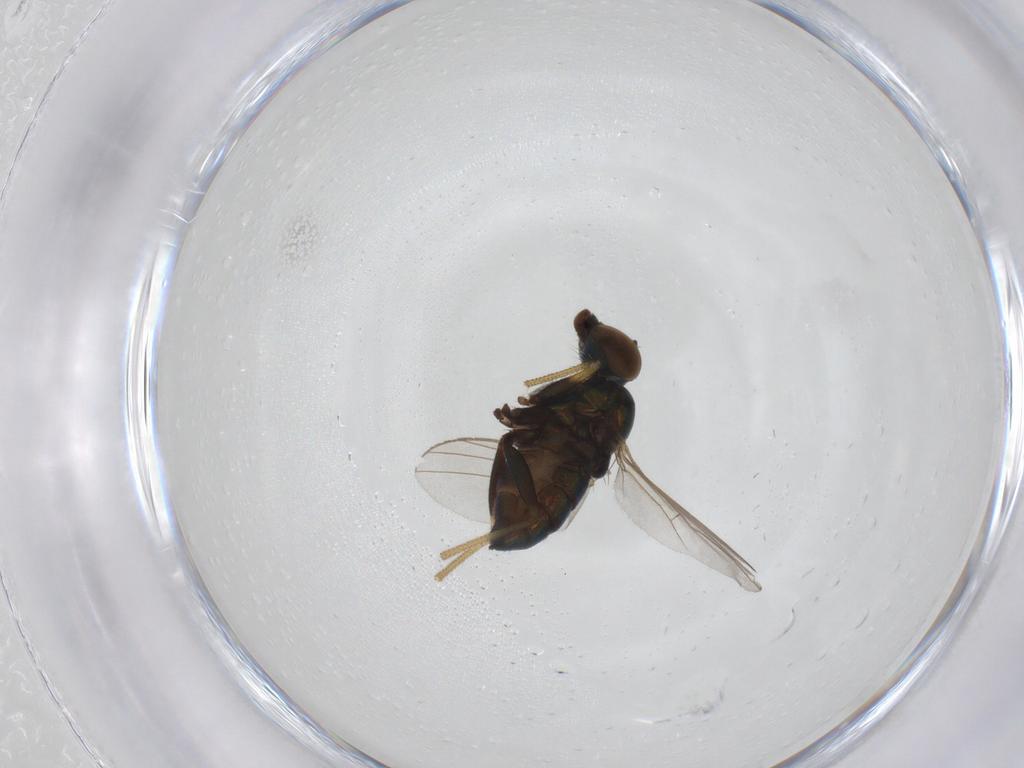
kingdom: Animalia
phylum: Arthropoda
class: Insecta
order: Diptera
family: Dolichopodidae
